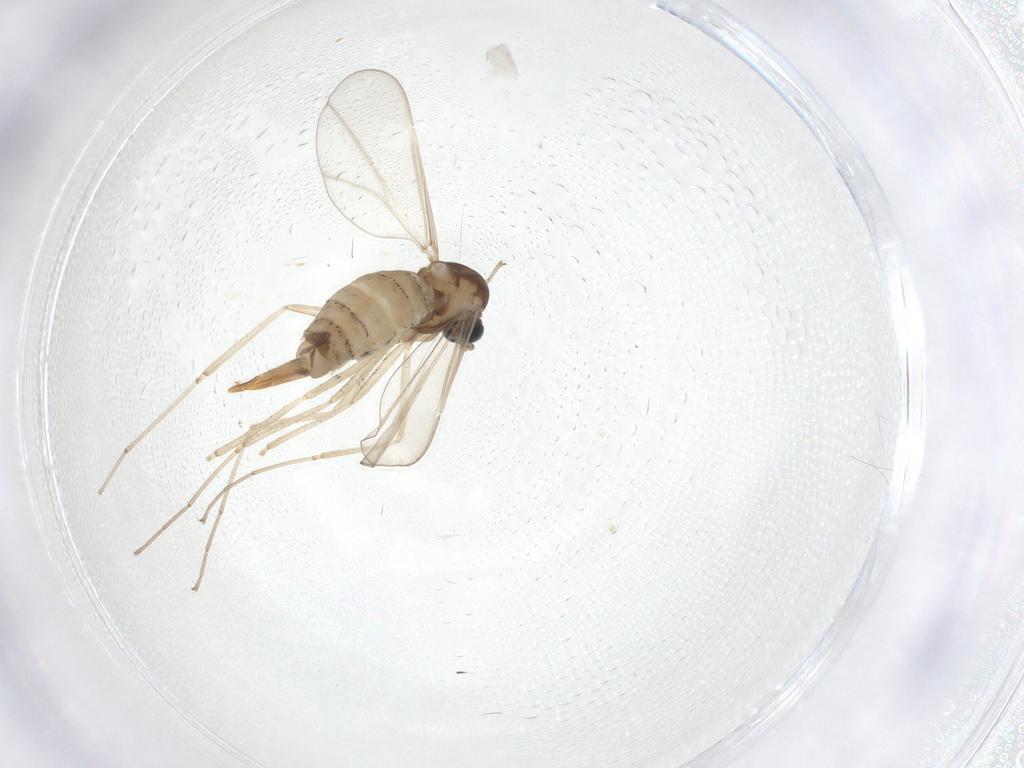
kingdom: Animalia
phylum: Arthropoda
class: Insecta
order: Diptera
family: Cecidomyiidae
